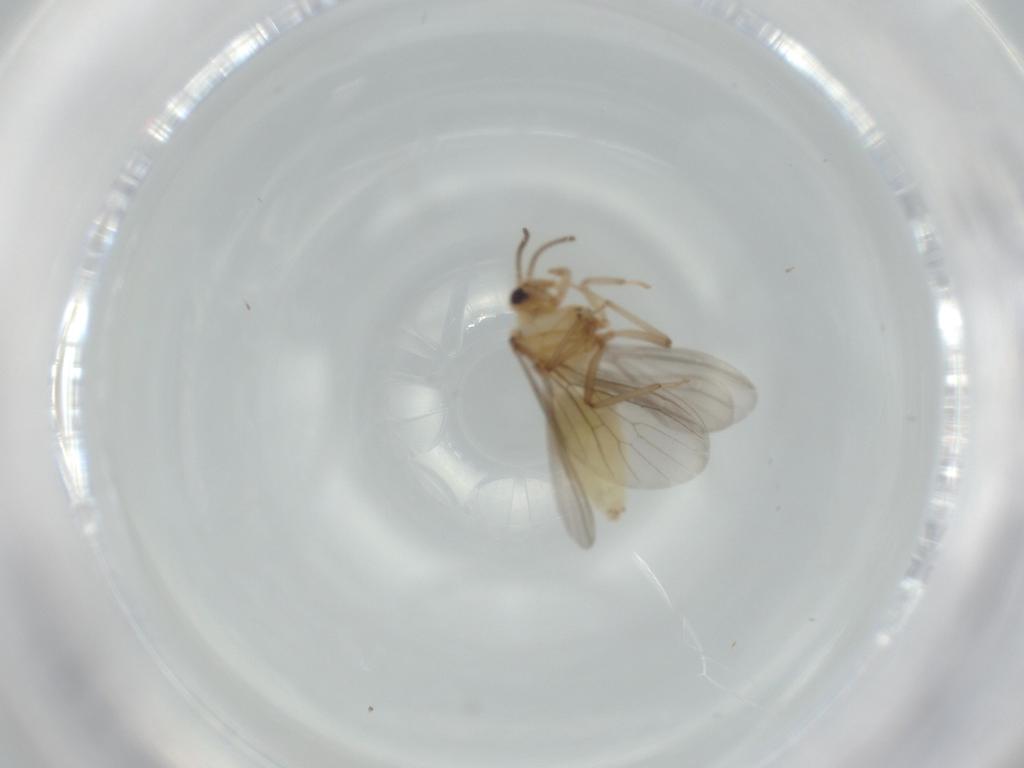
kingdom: Animalia
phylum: Arthropoda
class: Insecta
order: Neuroptera
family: Coniopterygidae
